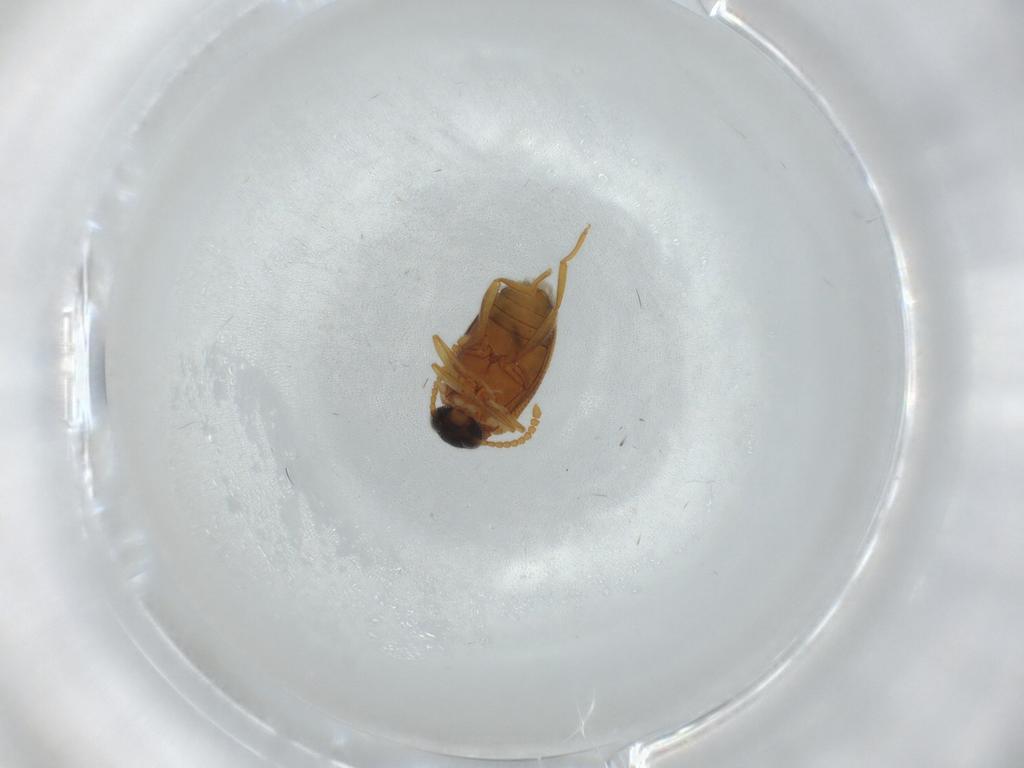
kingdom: Animalia
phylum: Arthropoda
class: Insecta
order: Coleoptera
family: Aderidae
